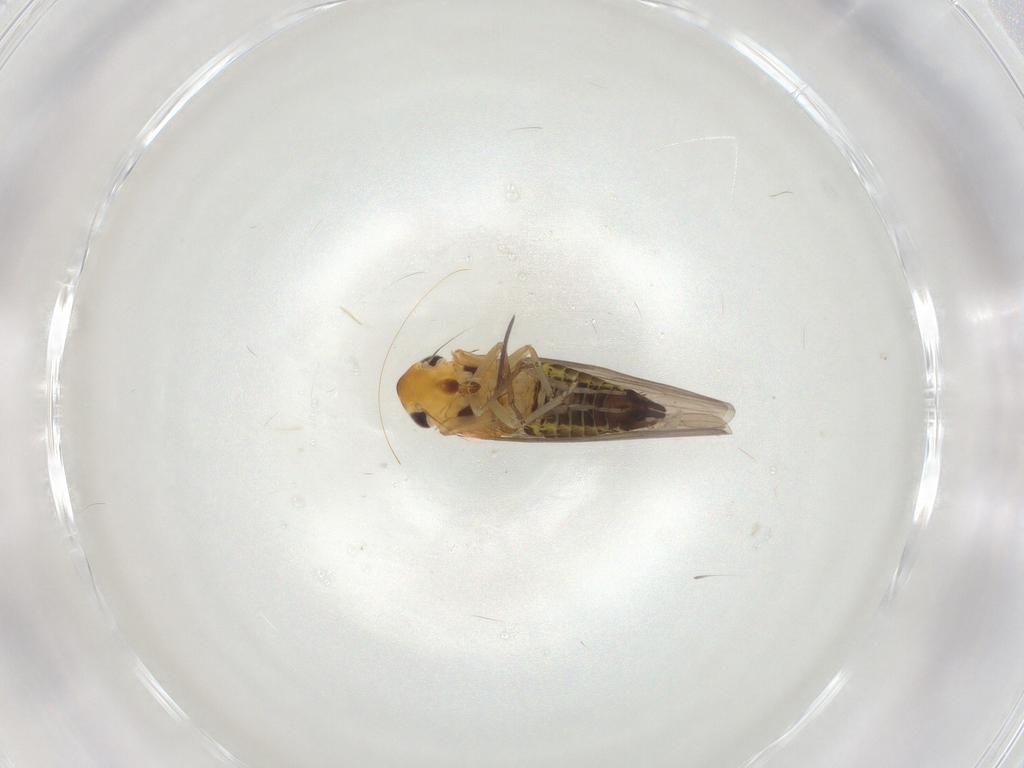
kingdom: Animalia
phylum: Arthropoda
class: Insecta
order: Hemiptera
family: Cicadellidae
